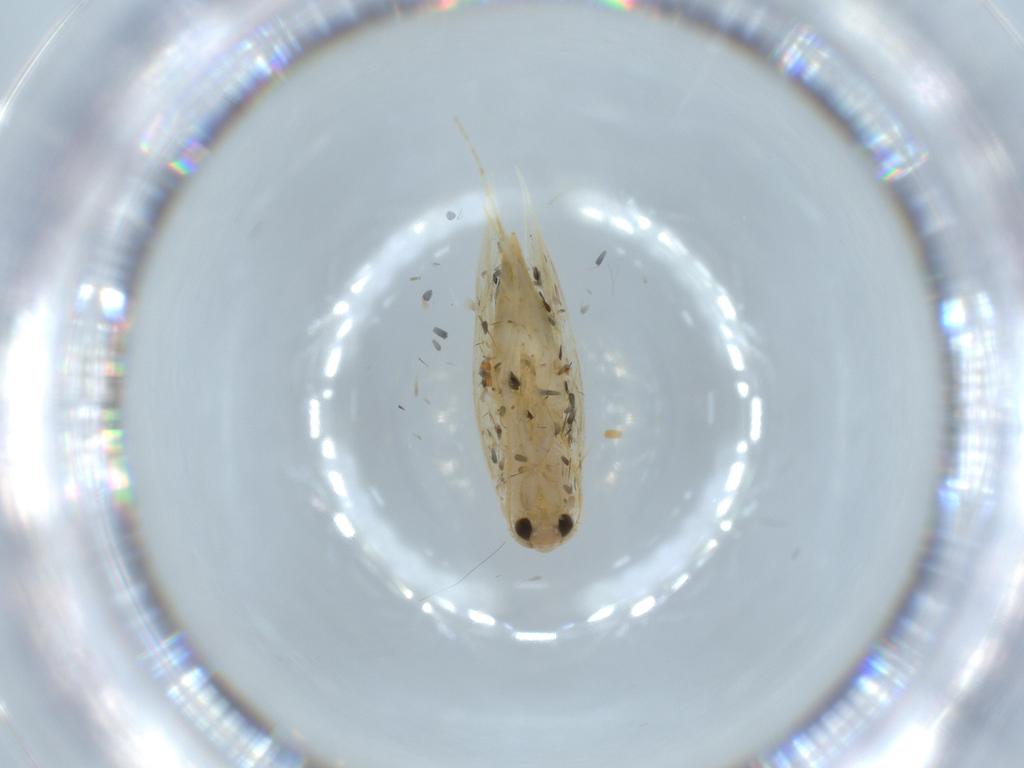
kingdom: Animalia
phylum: Arthropoda
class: Insecta
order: Lepidoptera
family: Tineidae
